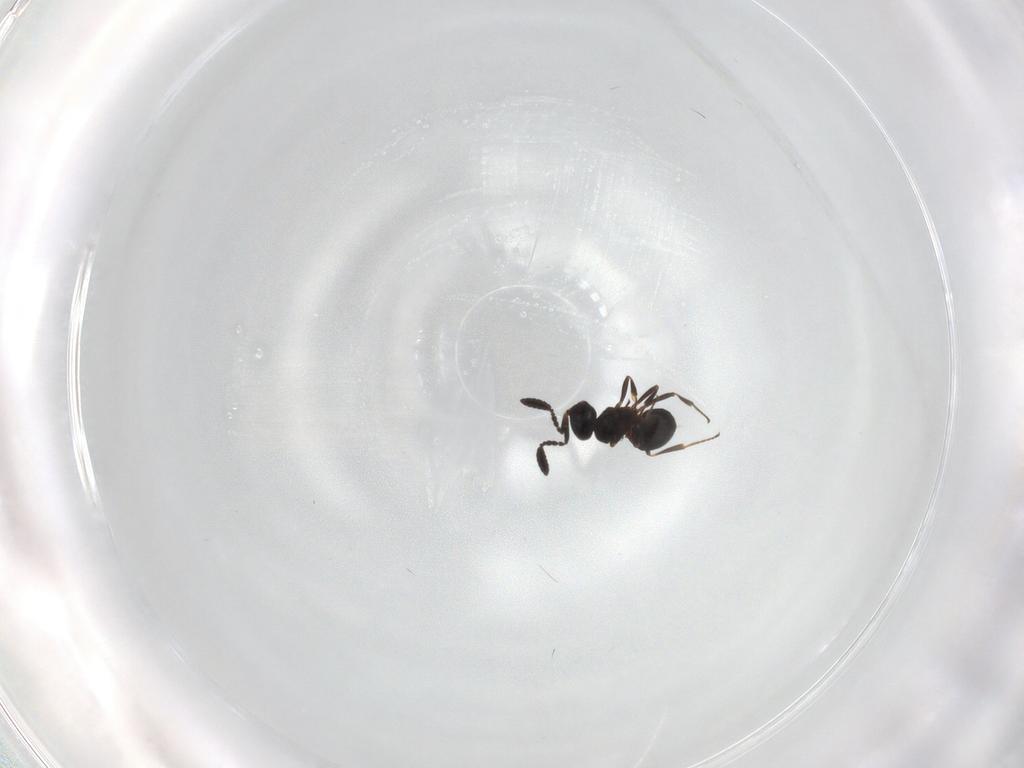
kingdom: Animalia
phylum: Arthropoda
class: Insecta
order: Hymenoptera
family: Scelionidae
